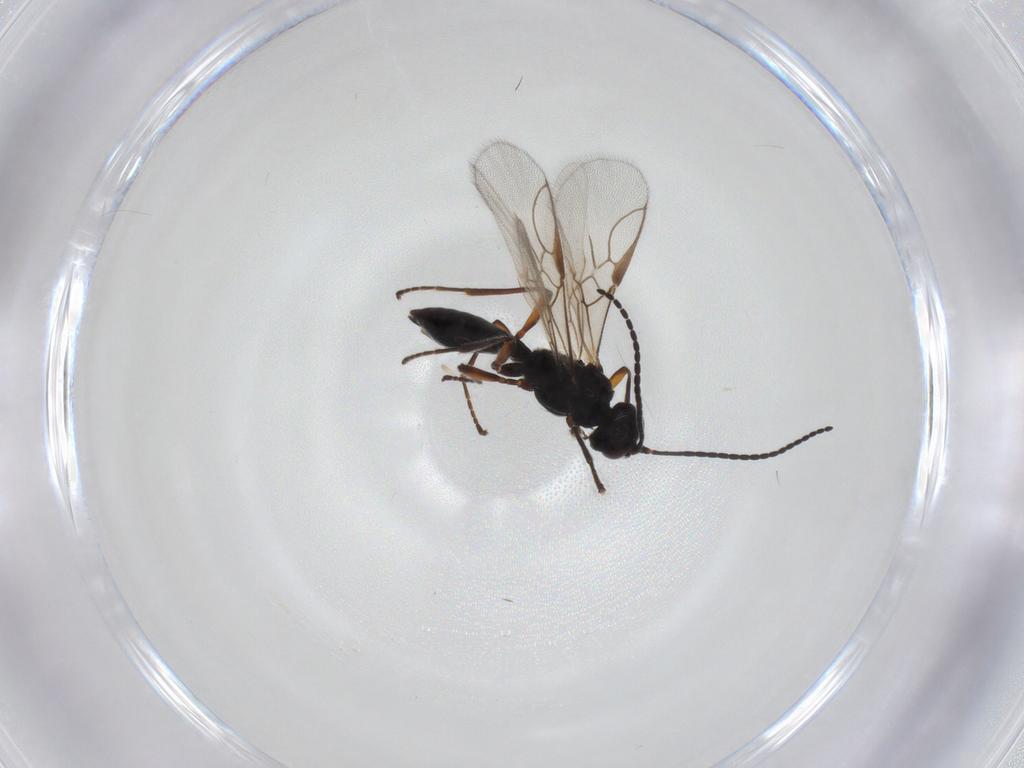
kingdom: Animalia
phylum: Arthropoda
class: Insecta
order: Hymenoptera
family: Braconidae
